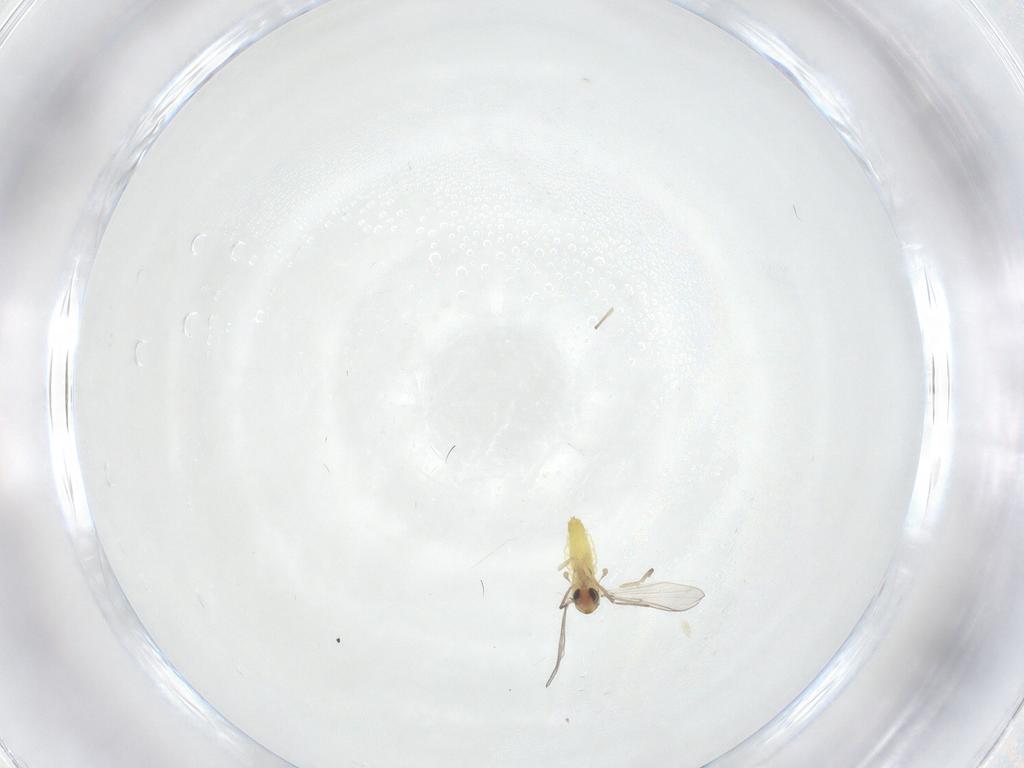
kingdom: Animalia
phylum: Arthropoda
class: Insecta
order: Diptera
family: Chironomidae
